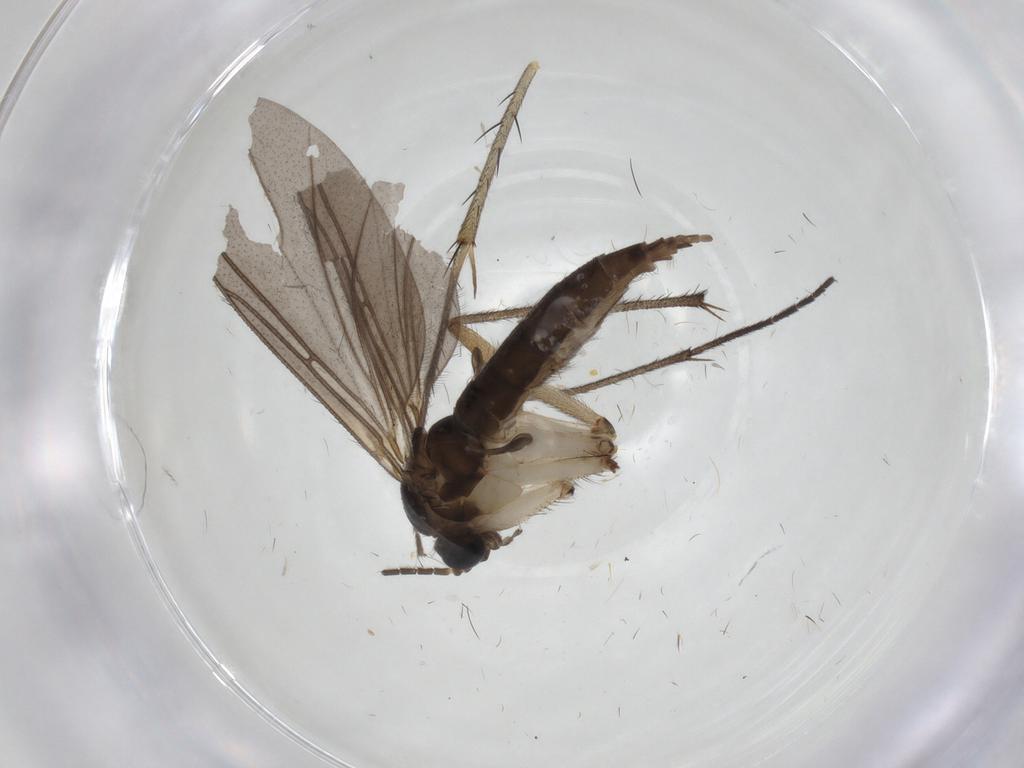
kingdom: Animalia
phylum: Arthropoda
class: Insecta
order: Diptera
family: Sciaridae
